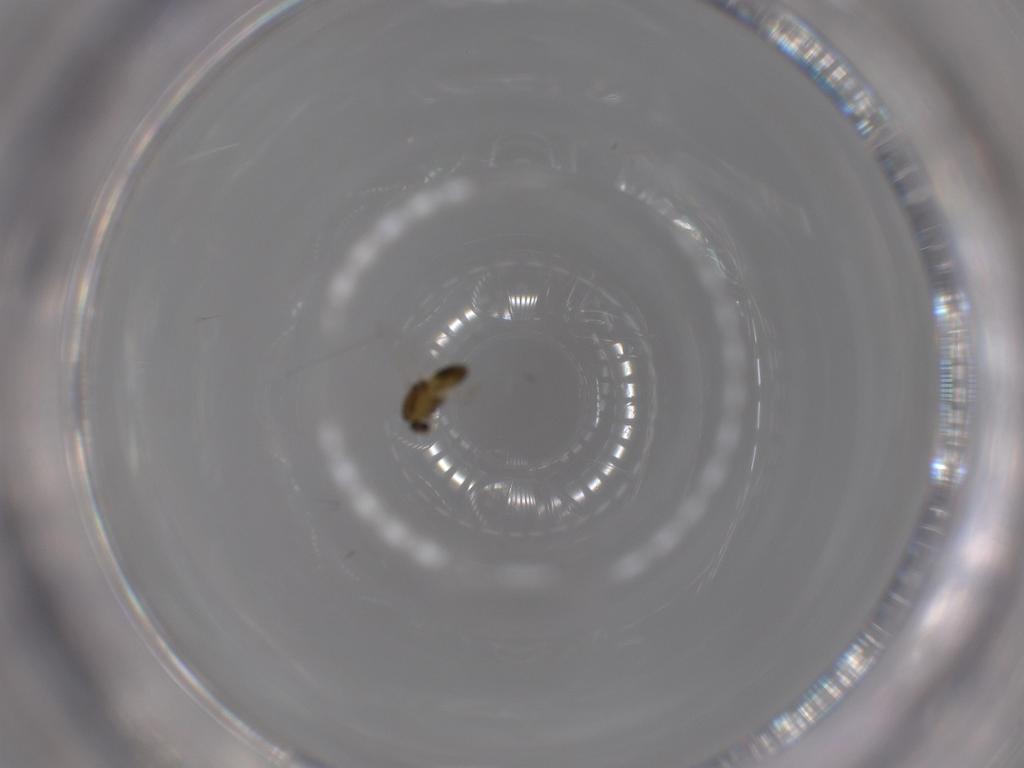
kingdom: Animalia
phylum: Arthropoda
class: Insecta
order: Diptera
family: Chironomidae
